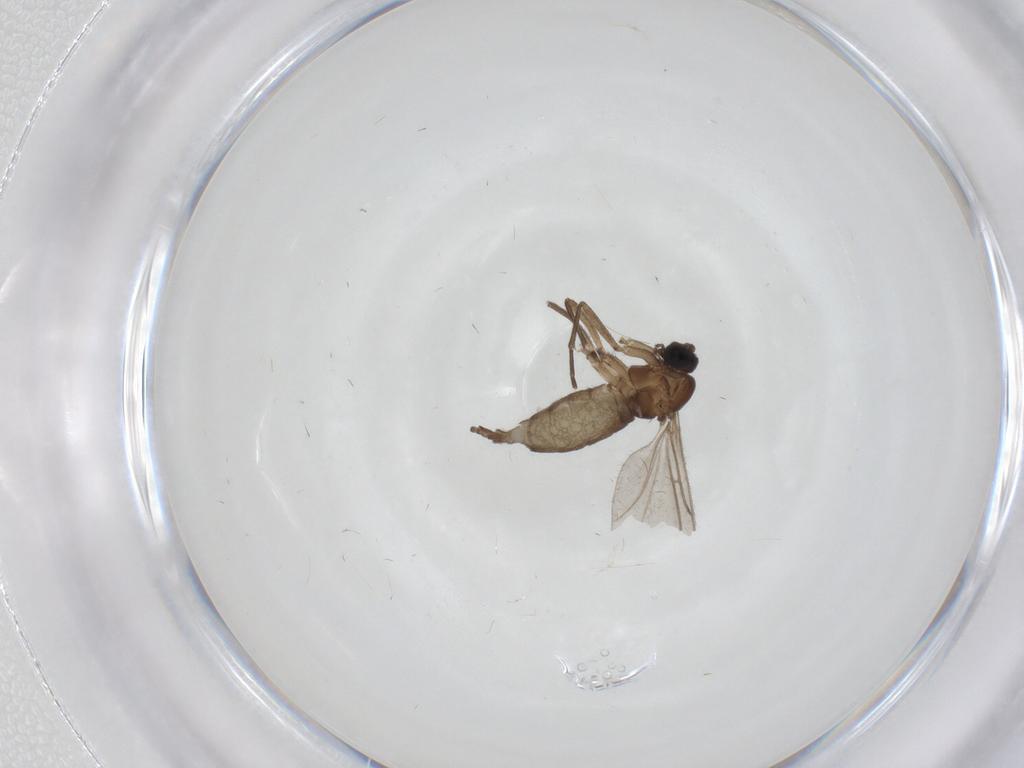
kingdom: Animalia
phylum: Arthropoda
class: Insecta
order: Diptera
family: Sciaridae
